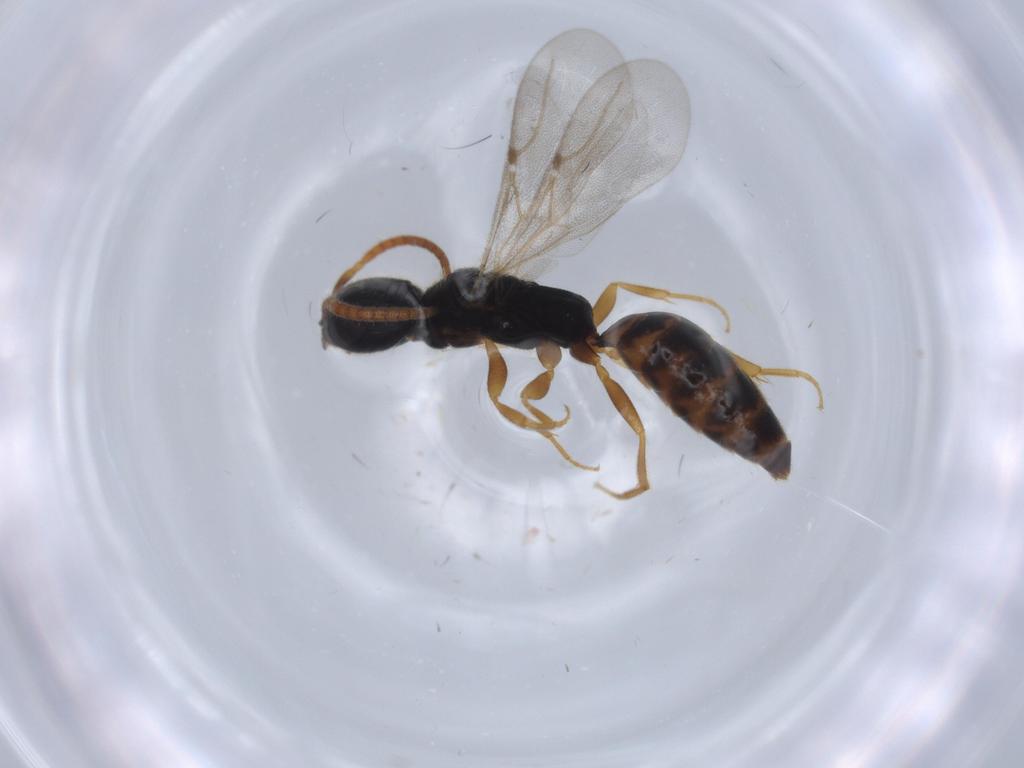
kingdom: Animalia
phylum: Arthropoda
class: Insecta
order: Hymenoptera
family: Bethylidae
